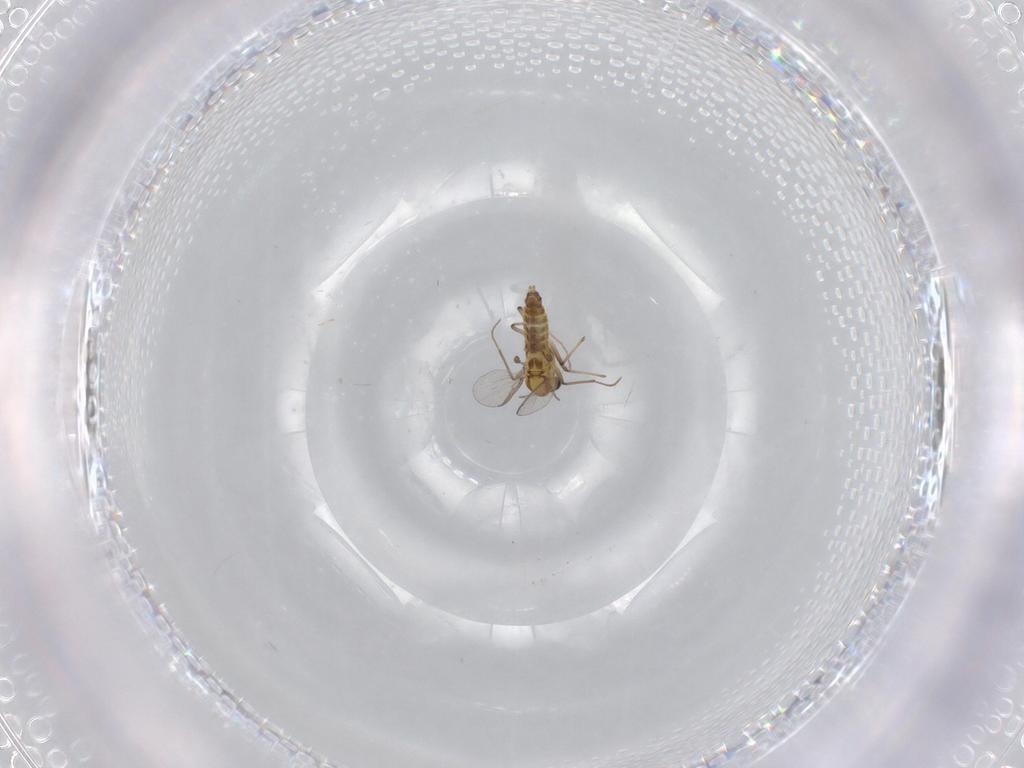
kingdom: Animalia
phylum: Arthropoda
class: Insecta
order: Diptera
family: Chironomidae
